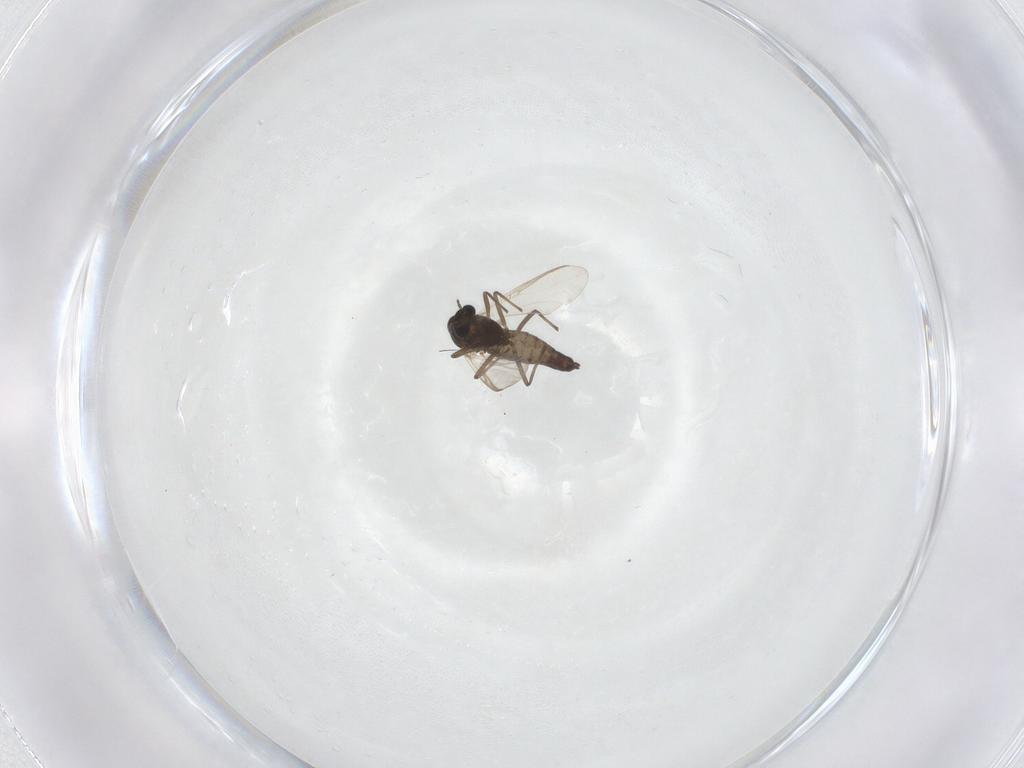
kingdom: Animalia
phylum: Arthropoda
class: Insecta
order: Diptera
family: Chironomidae
